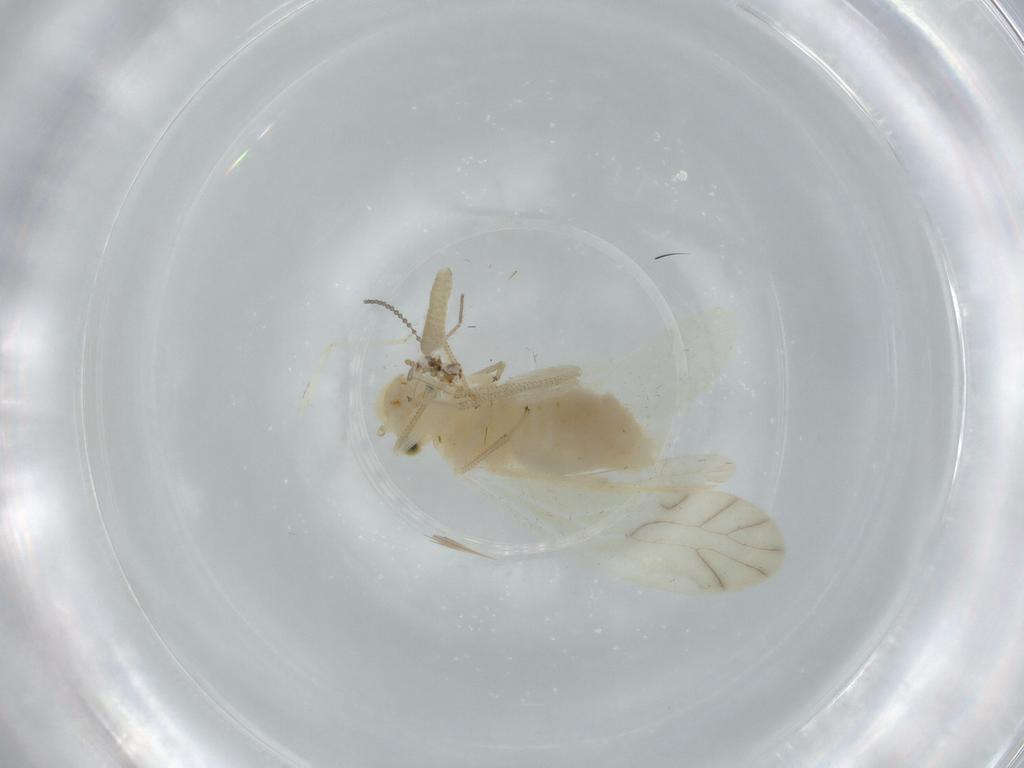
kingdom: Animalia
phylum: Arthropoda
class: Insecta
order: Psocodea
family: Caeciliusidae
